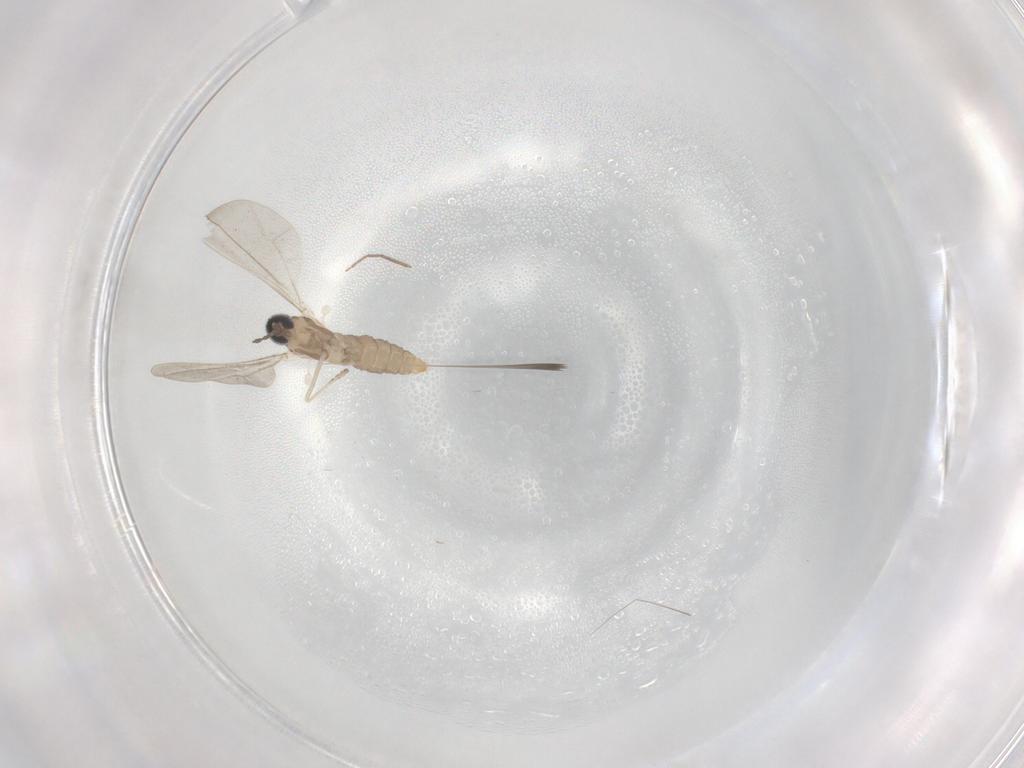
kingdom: Animalia
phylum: Arthropoda
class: Insecta
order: Diptera
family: Cecidomyiidae
